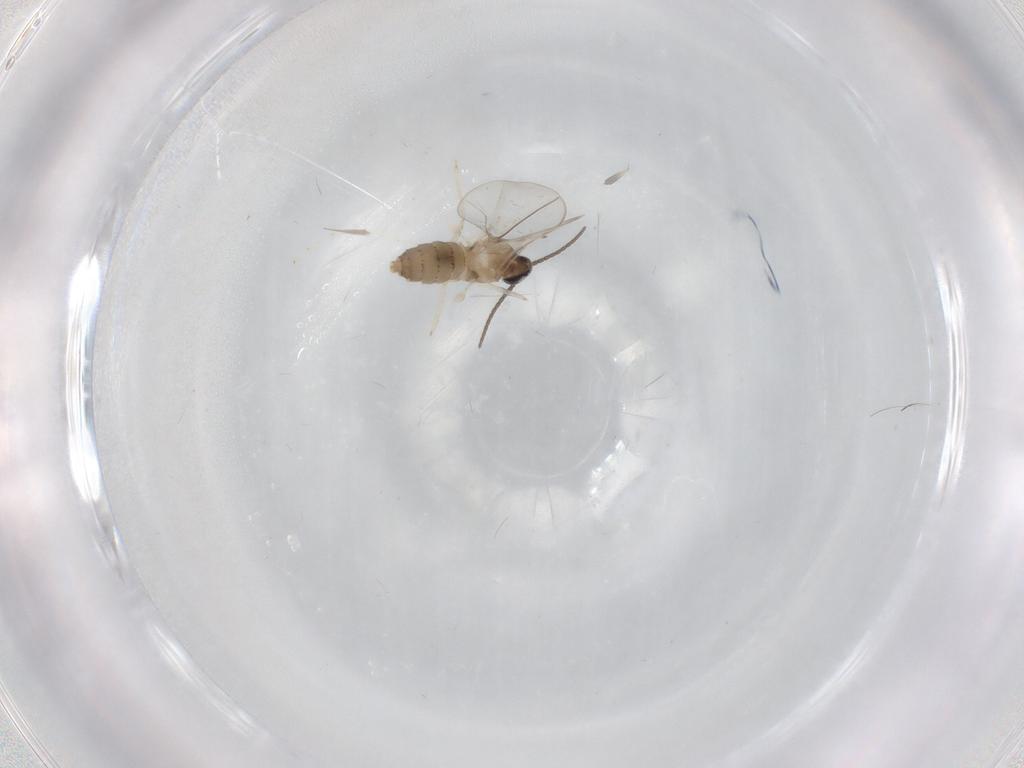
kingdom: Animalia
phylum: Arthropoda
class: Insecta
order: Diptera
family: Cecidomyiidae
